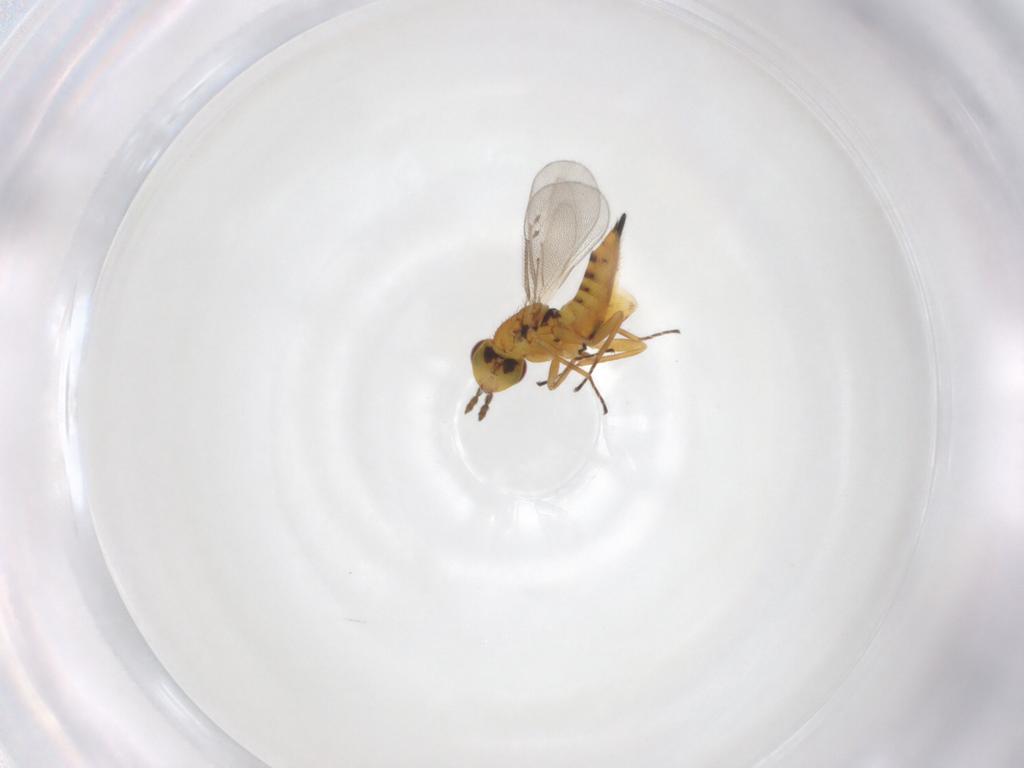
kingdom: Animalia
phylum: Arthropoda
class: Insecta
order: Hymenoptera
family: Eulophidae
